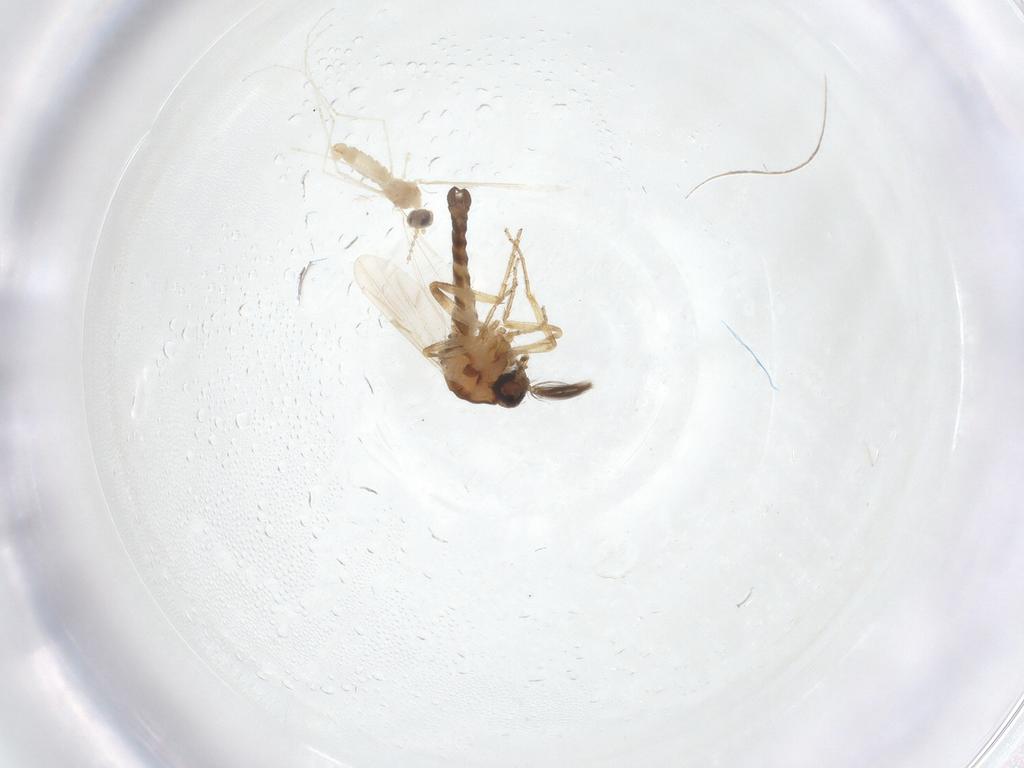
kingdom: Animalia
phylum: Arthropoda
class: Insecta
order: Diptera
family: Ceratopogonidae
